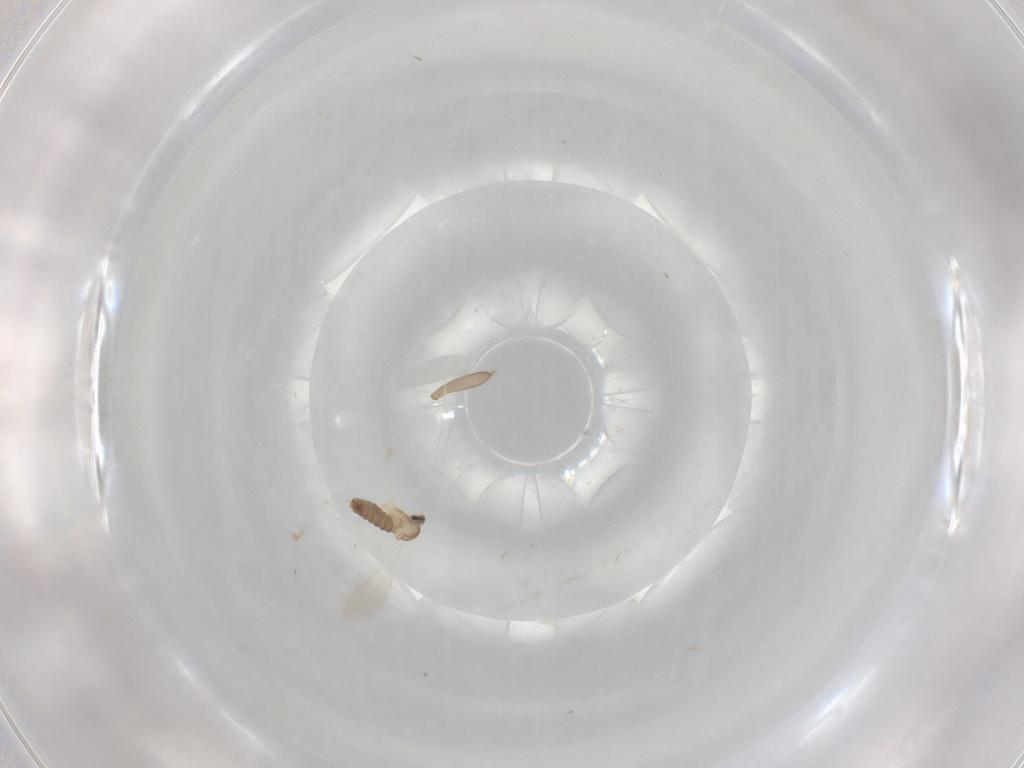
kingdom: Animalia
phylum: Arthropoda
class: Insecta
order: Diptera
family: Cecidomyiidae
